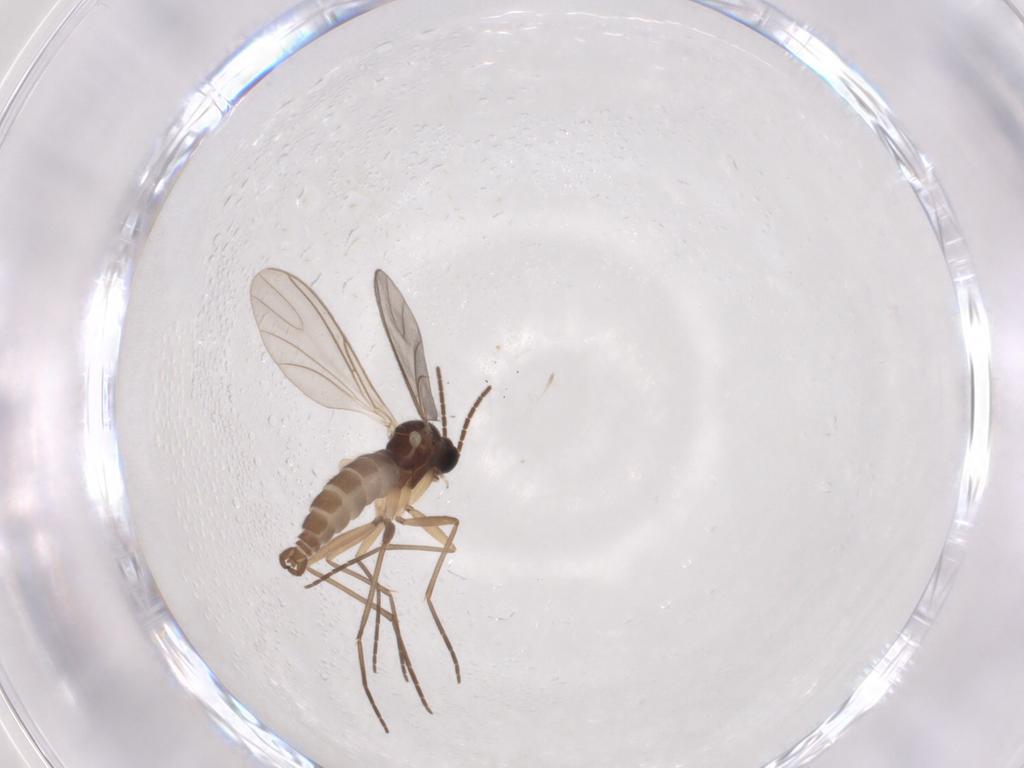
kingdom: Animalia
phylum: Arthropoda
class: Insecta
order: Diptera
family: Sciaridae
